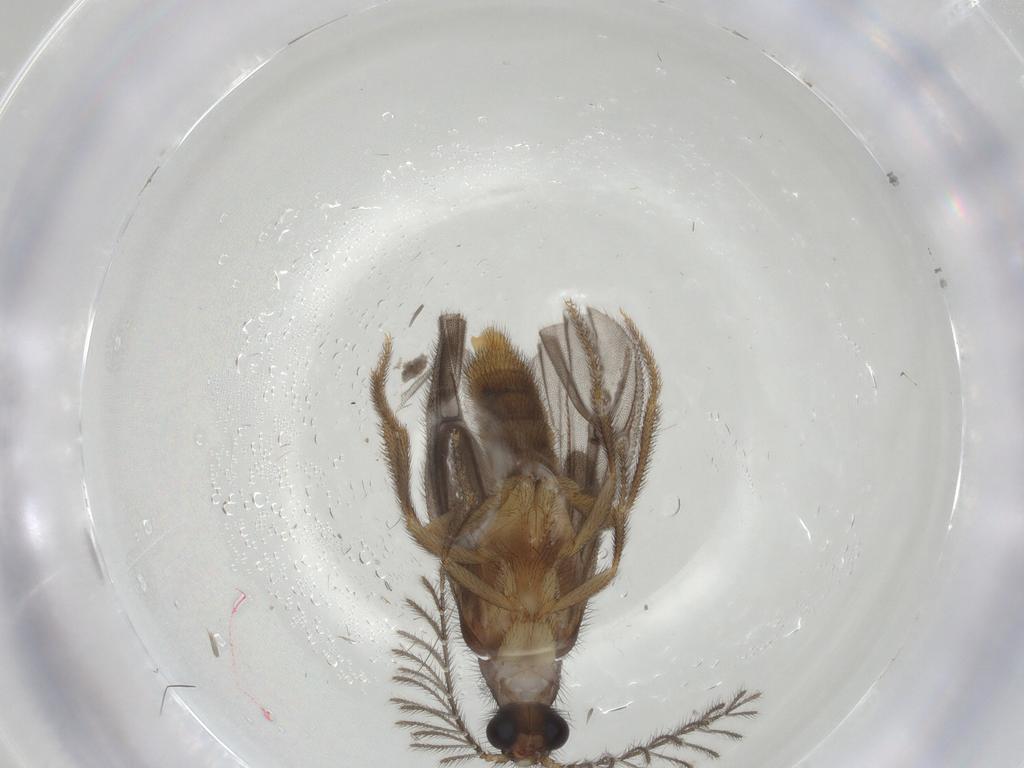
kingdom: Animalia
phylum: Arthropoda
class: Insecta
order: Coleoptera
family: Phengodidae
